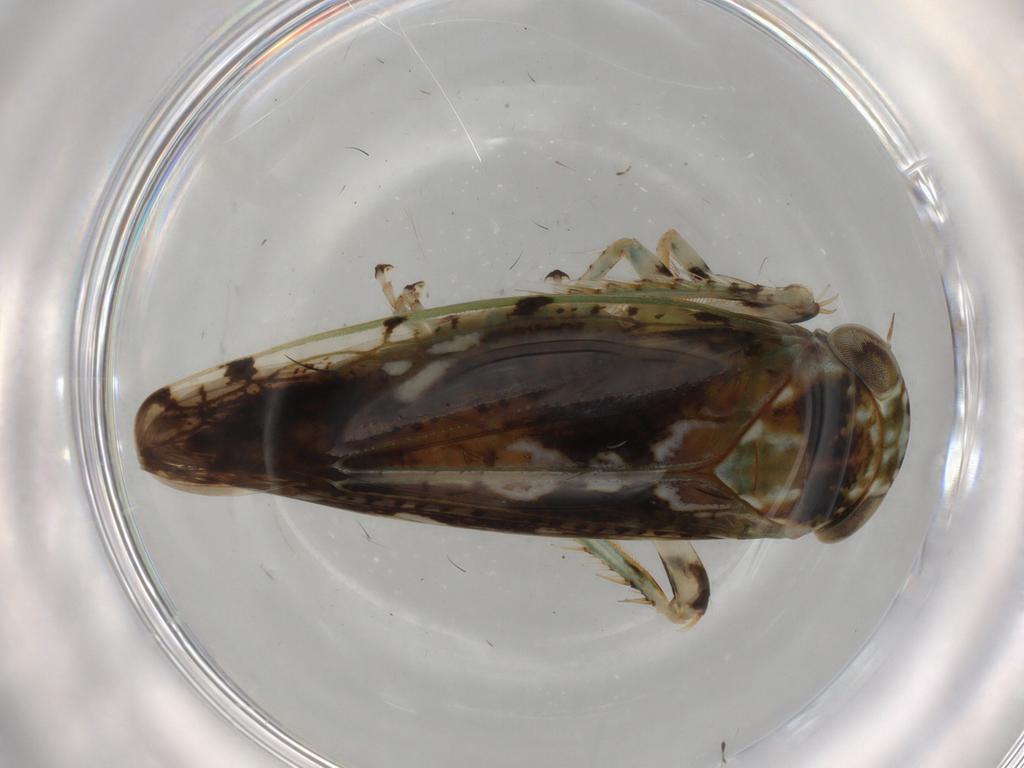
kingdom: Animalia
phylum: Arthropoda
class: Insecta
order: Hemiptera
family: Cicadellidae
